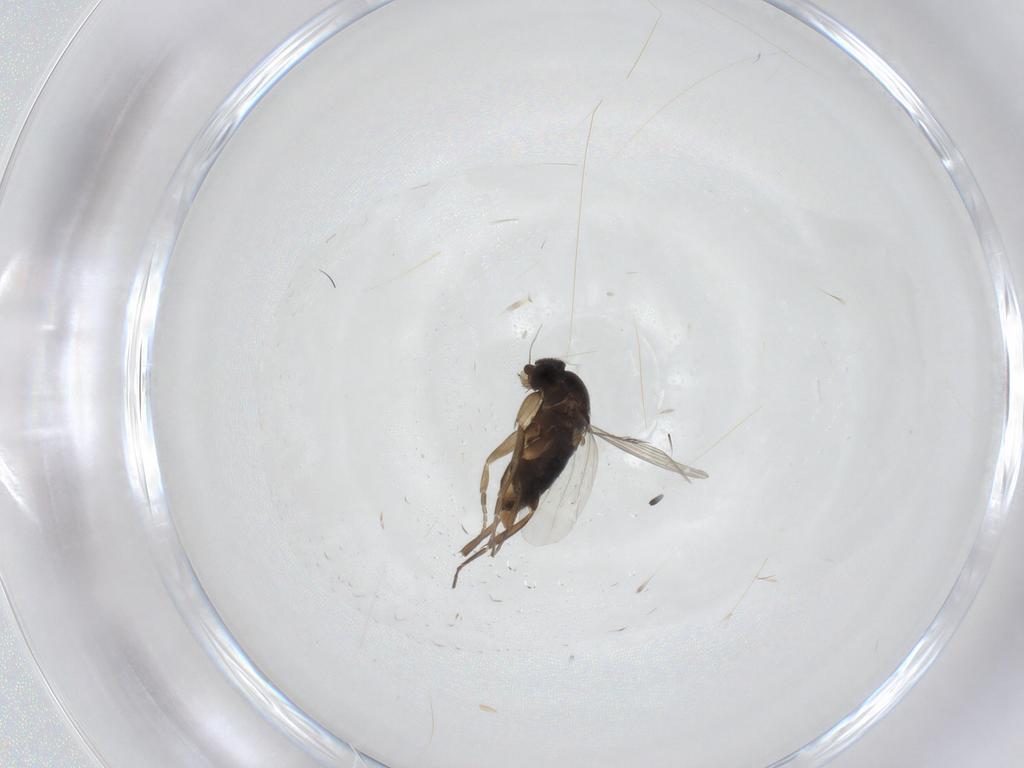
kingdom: Animalia
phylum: Arthropoda
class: Insecta
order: Diptera
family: Phoridae
